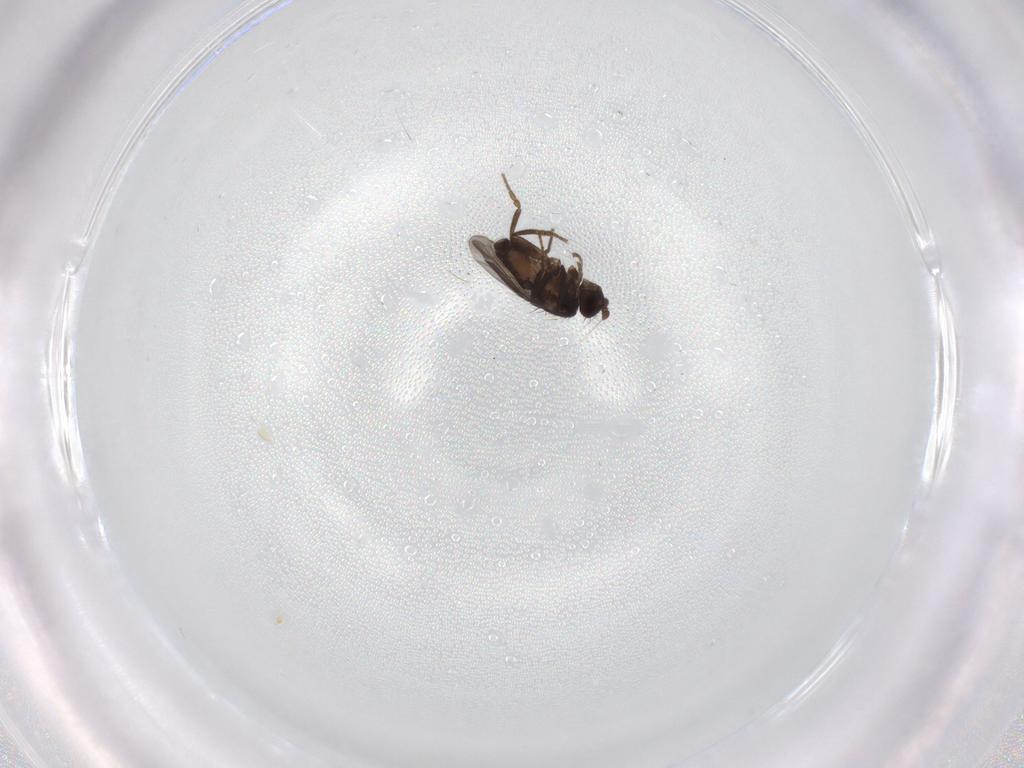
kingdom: Animalia
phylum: Arthropoda
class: Insecta
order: Diptera
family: Sphaeroceridae
